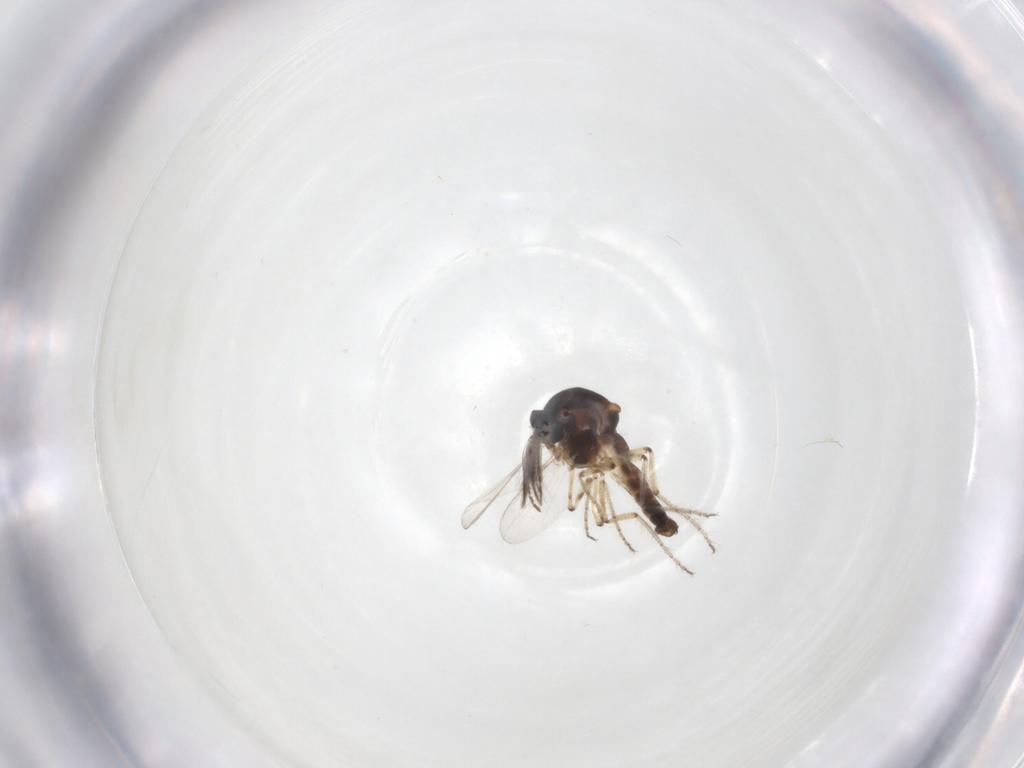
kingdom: Animalia
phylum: Arthropoda
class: Insecta
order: Diptera
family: Ceratopogonidae
